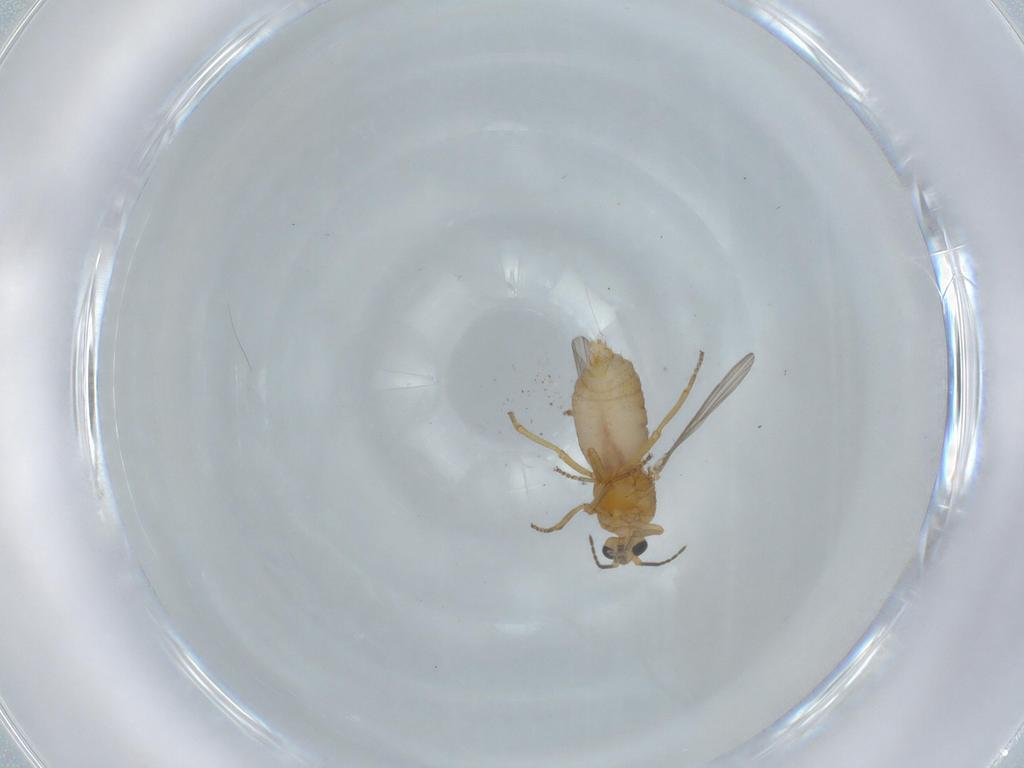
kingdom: Animalia
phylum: Arthropoda
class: Insecta
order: Diptera
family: Ceratopogonidae
